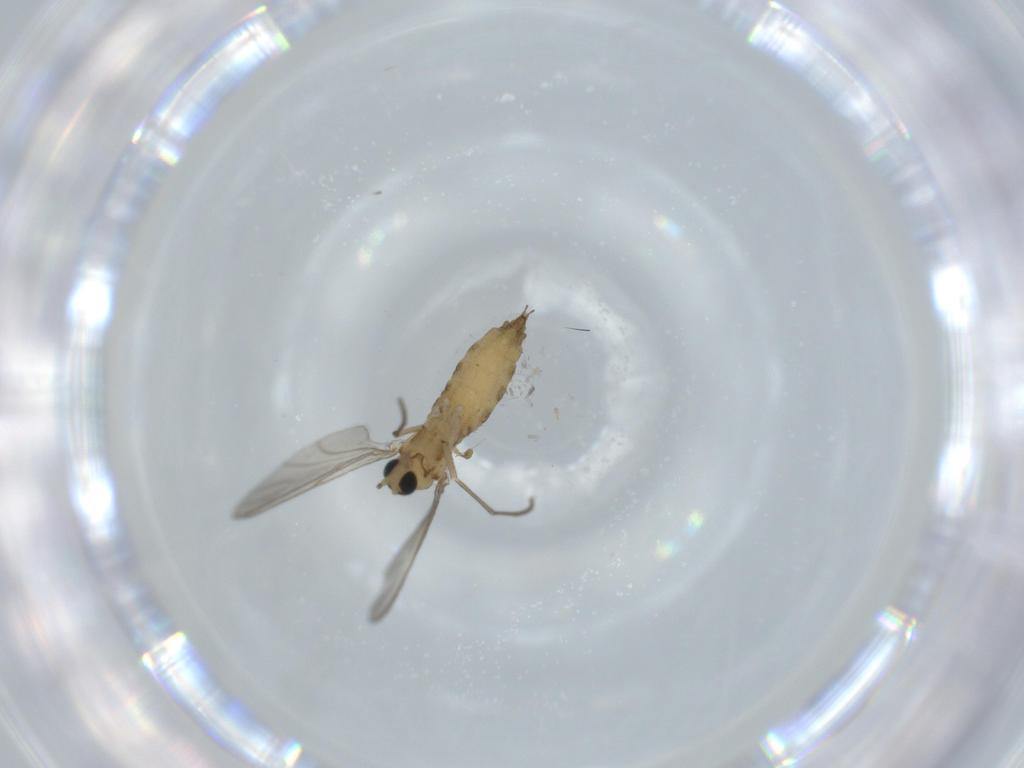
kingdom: Animalia
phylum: Arthropoda
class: Insecta
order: Diptera
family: Sciaridae
